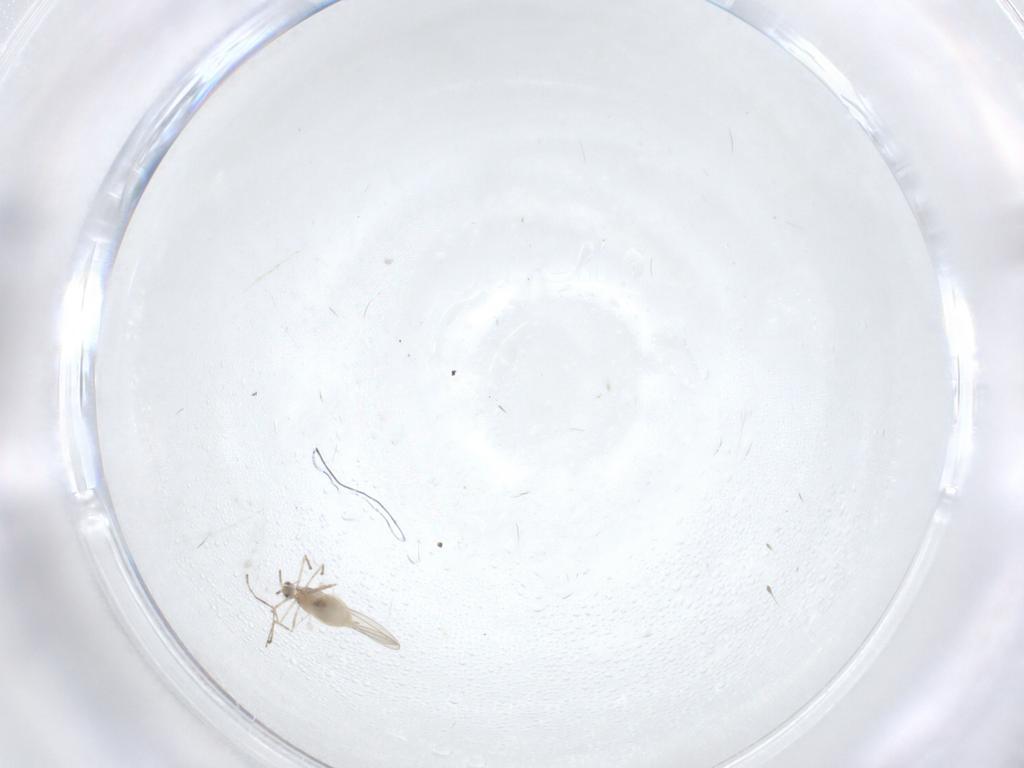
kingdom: Animalia
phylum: Arthropoda
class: Insecta
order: Diptera
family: Cecidomyiidae
